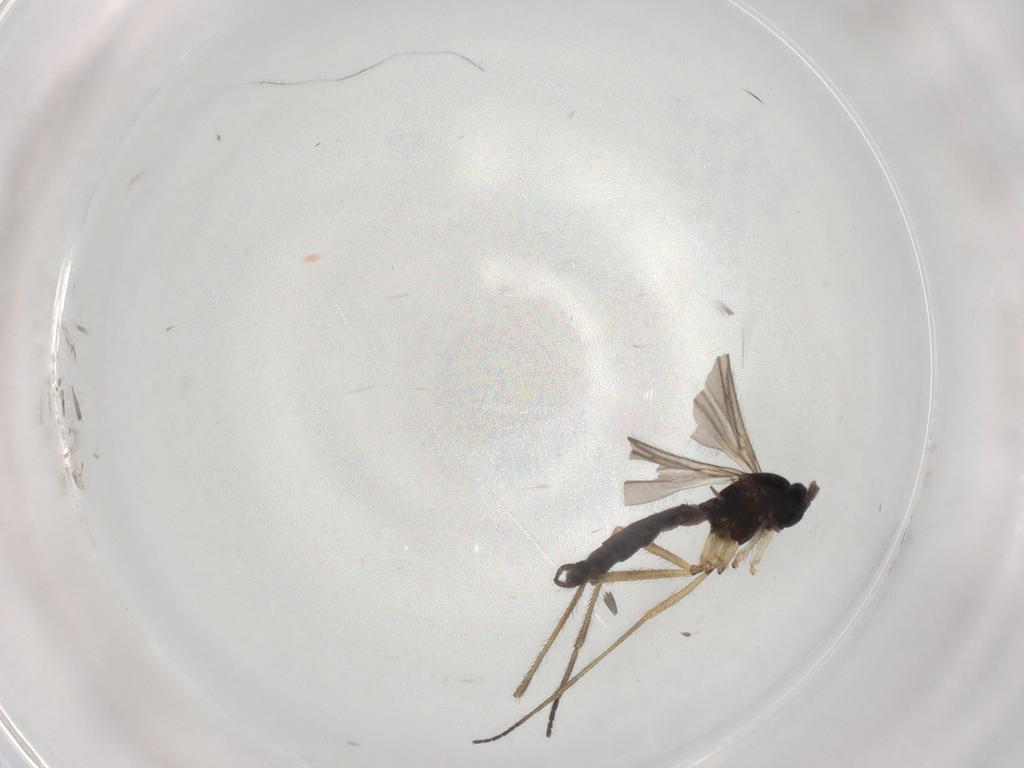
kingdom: Animalia
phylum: Arthropoda
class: Insecta
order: Diptera
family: Sciaridae
